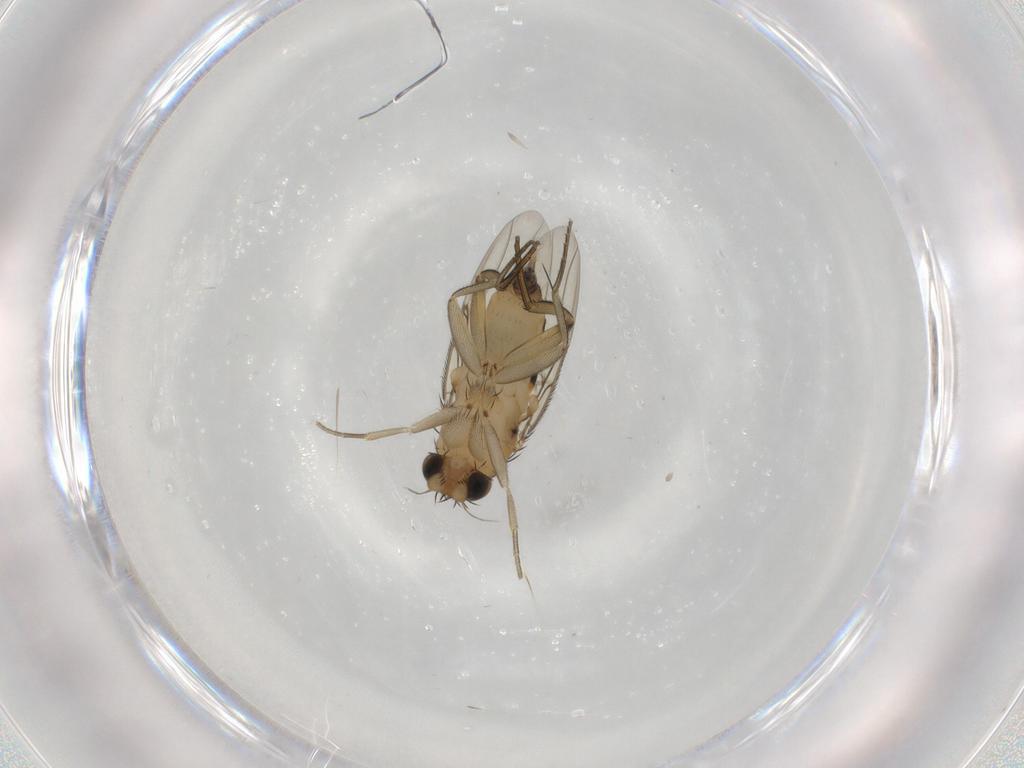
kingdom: Animalia
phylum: Arthropoda
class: Insecta
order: Diptera
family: Phoridae
